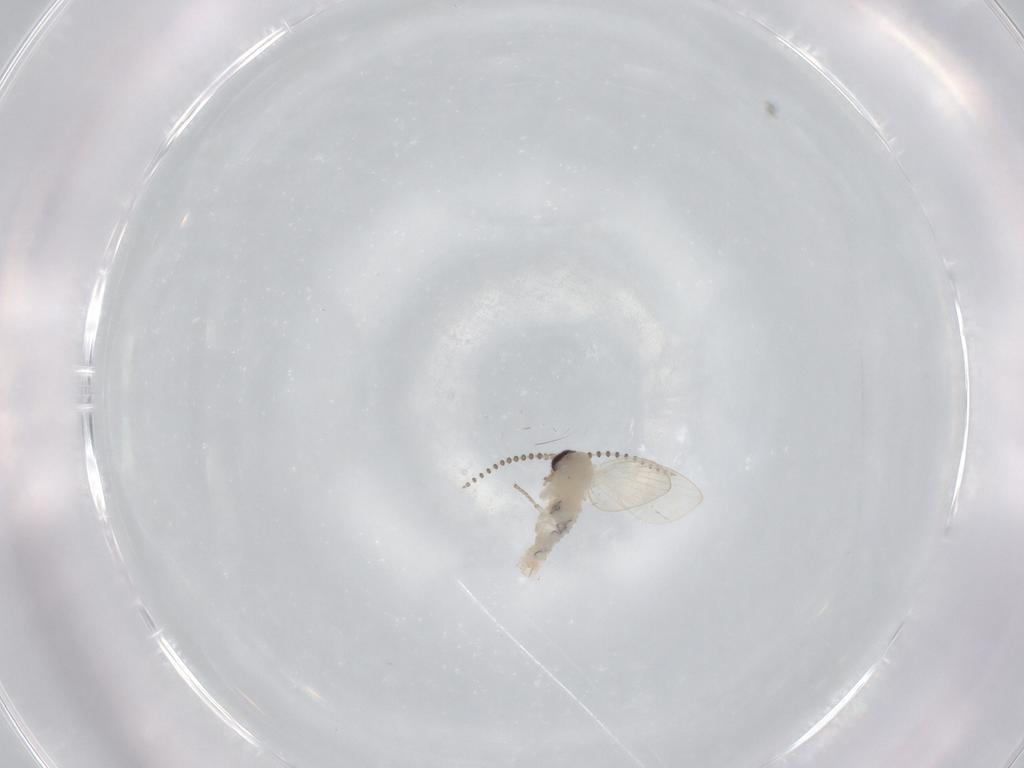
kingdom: Animalia
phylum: Arthropoda
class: Insecta
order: Diptera
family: Psychodidae
